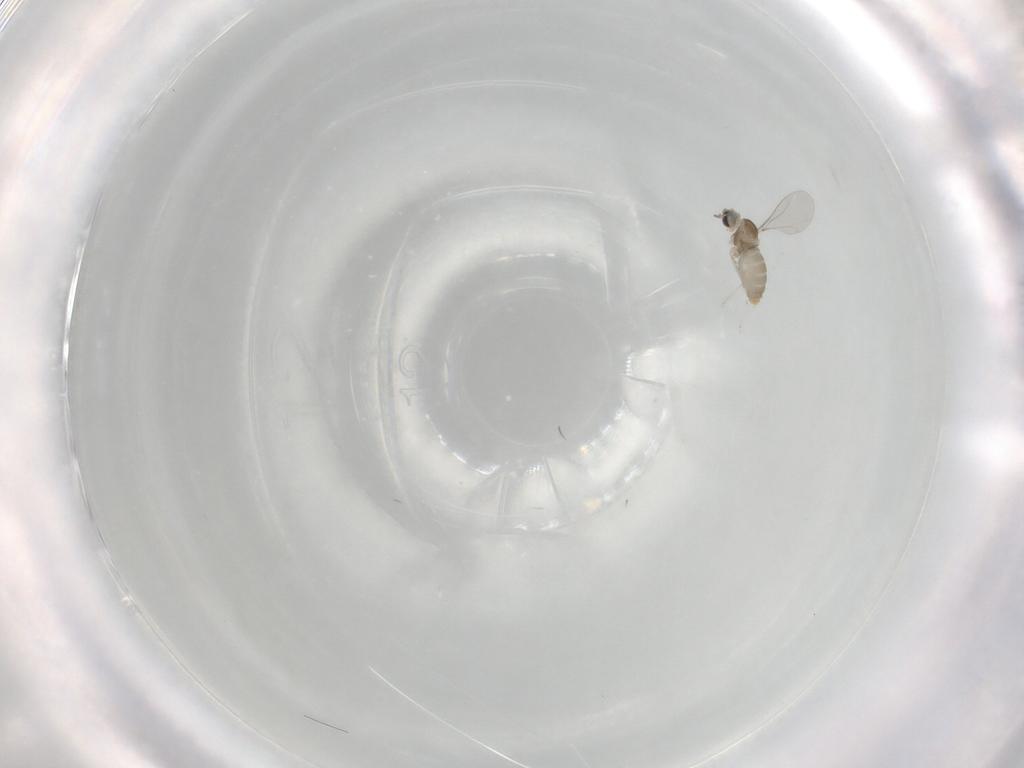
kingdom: Animalia
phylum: Arthropoda
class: Insecta
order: Diptera
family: Cecidomyiidae
